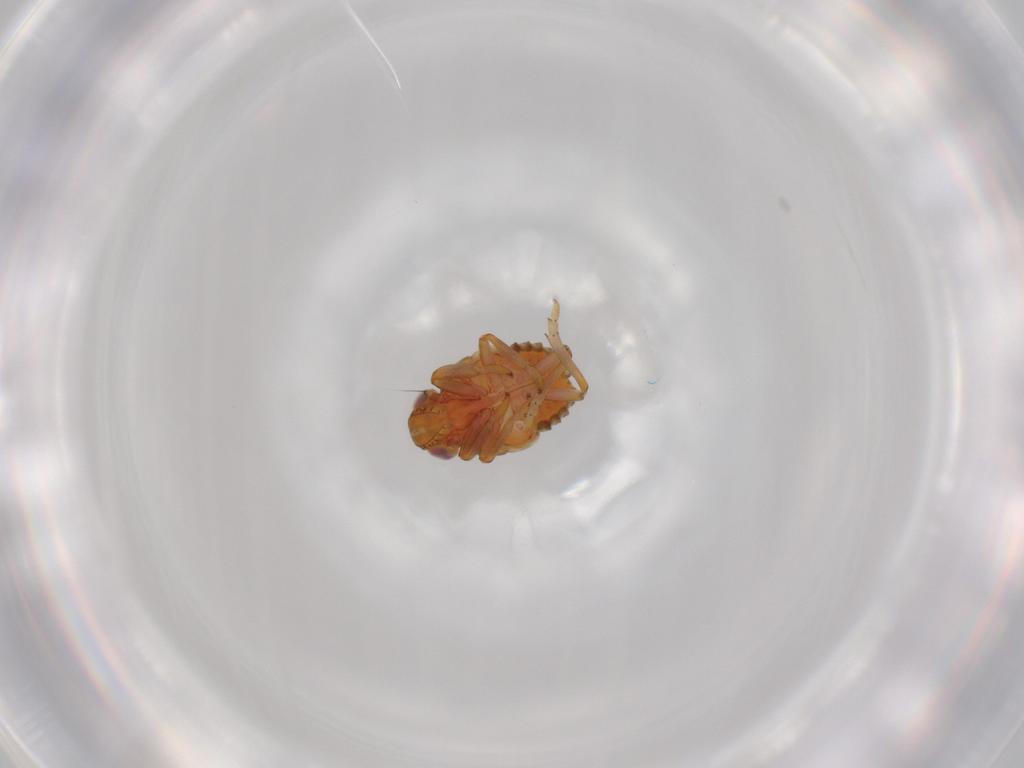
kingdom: Animalia
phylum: Arthropoda
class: Insecta
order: Hemiptera
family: Issidae
